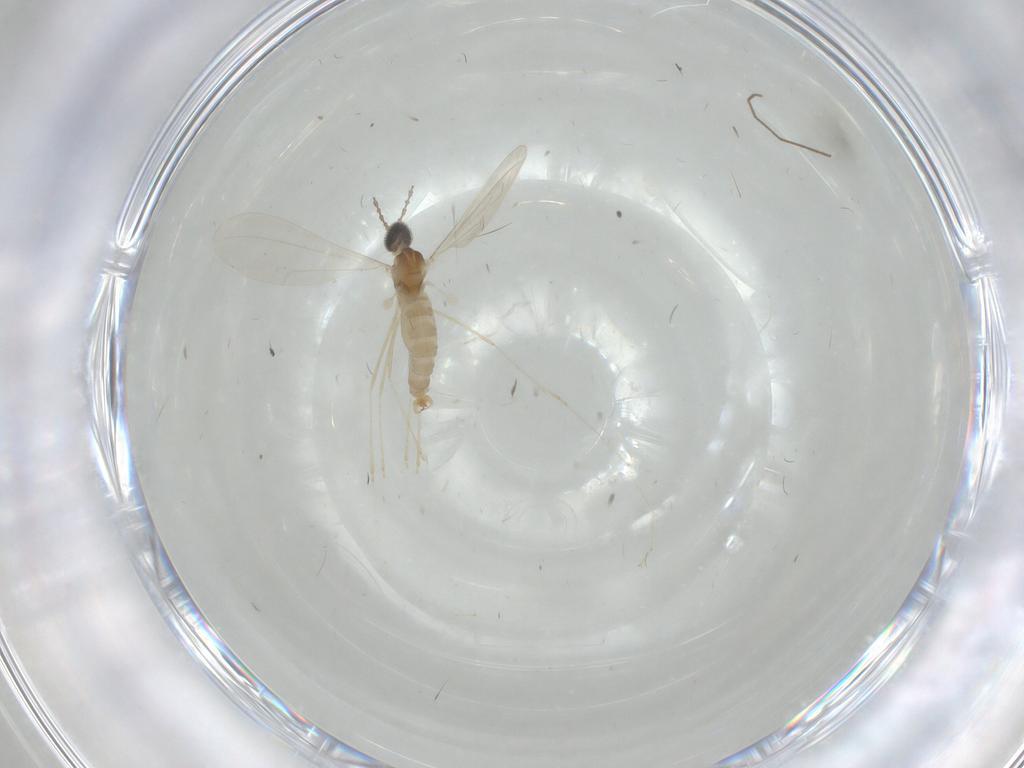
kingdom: Animalia
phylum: Arthropoda
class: Insecta
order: Diptera
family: Cecidomyiidae
